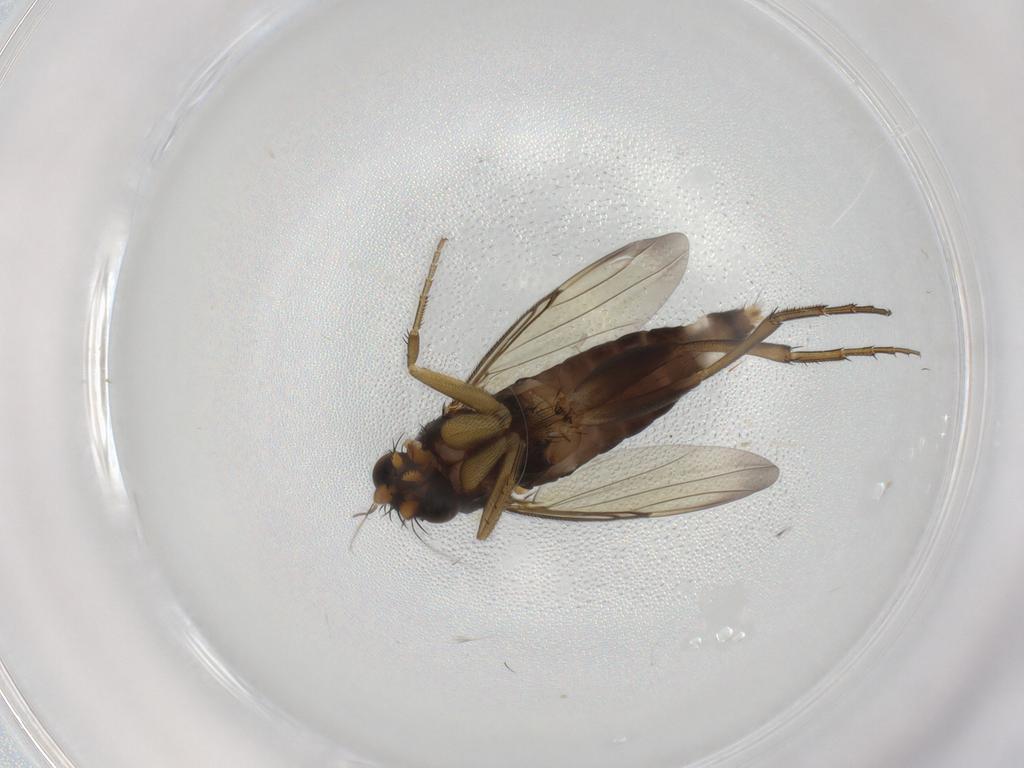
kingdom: Animalia
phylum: Arthropoda
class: Insecta
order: Diptera
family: Phoridae
